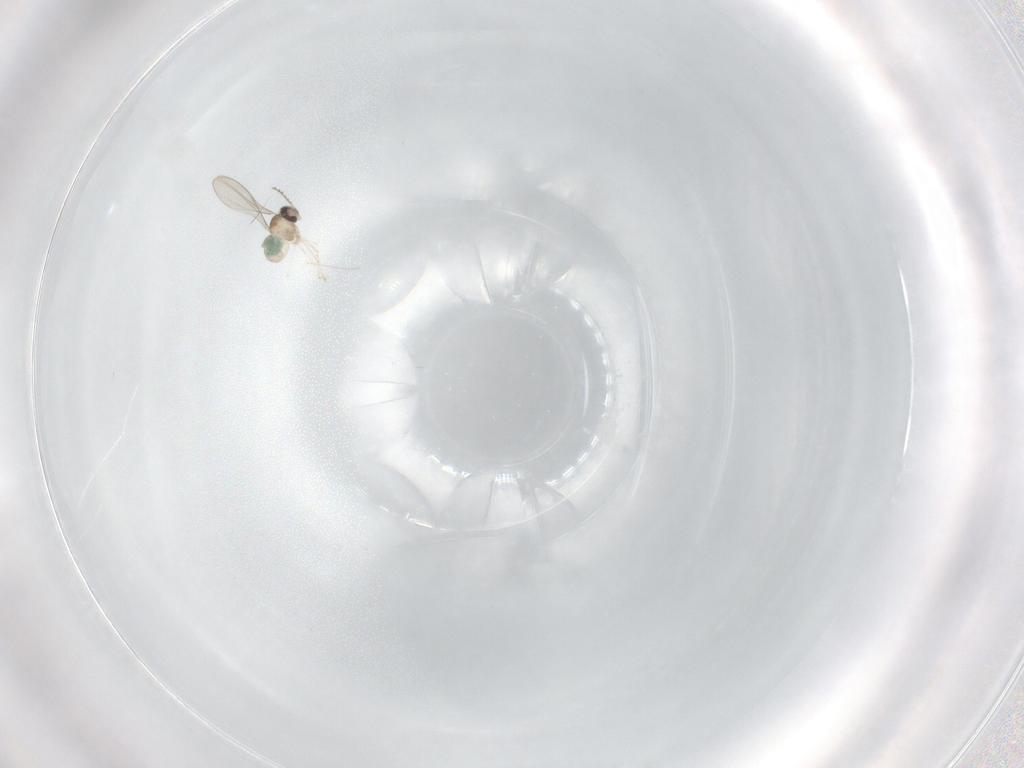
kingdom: Animalia
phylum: Arthropoda
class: Insecta
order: Diptera
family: Cecidomyiidae
